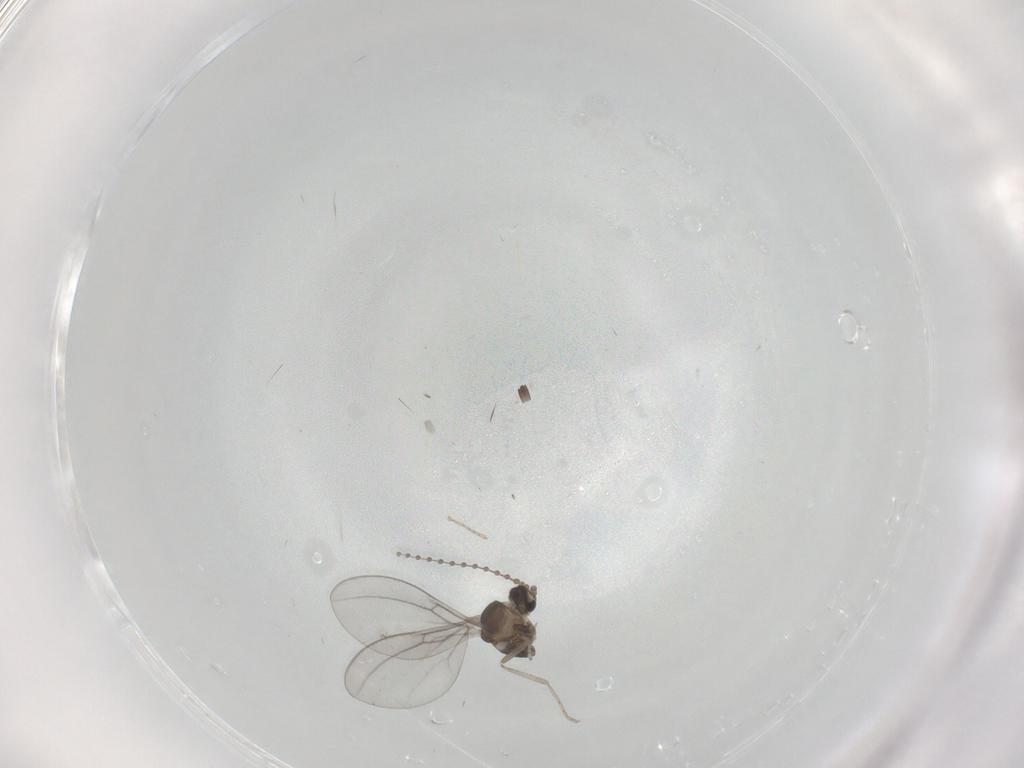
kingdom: Animalia
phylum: Arthropoda
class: Insecta
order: Diptera
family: Cecidomyiidae
